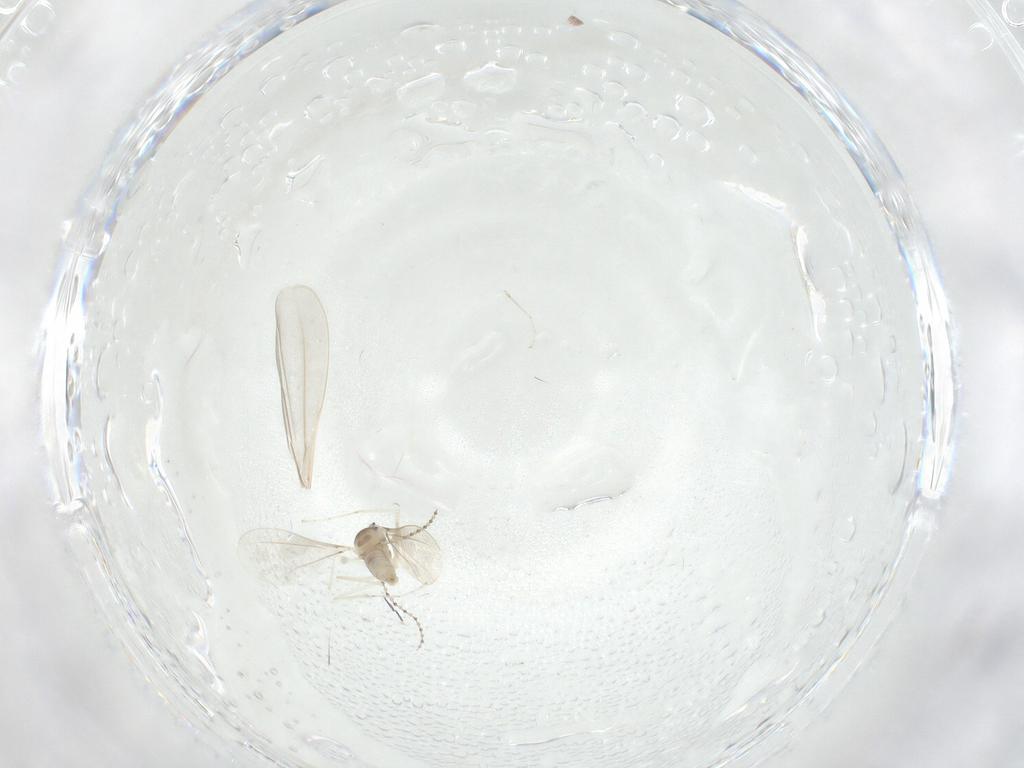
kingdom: Animalia
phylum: Arthropoda
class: Insecta
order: Diptera
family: Cecidomyiidae
